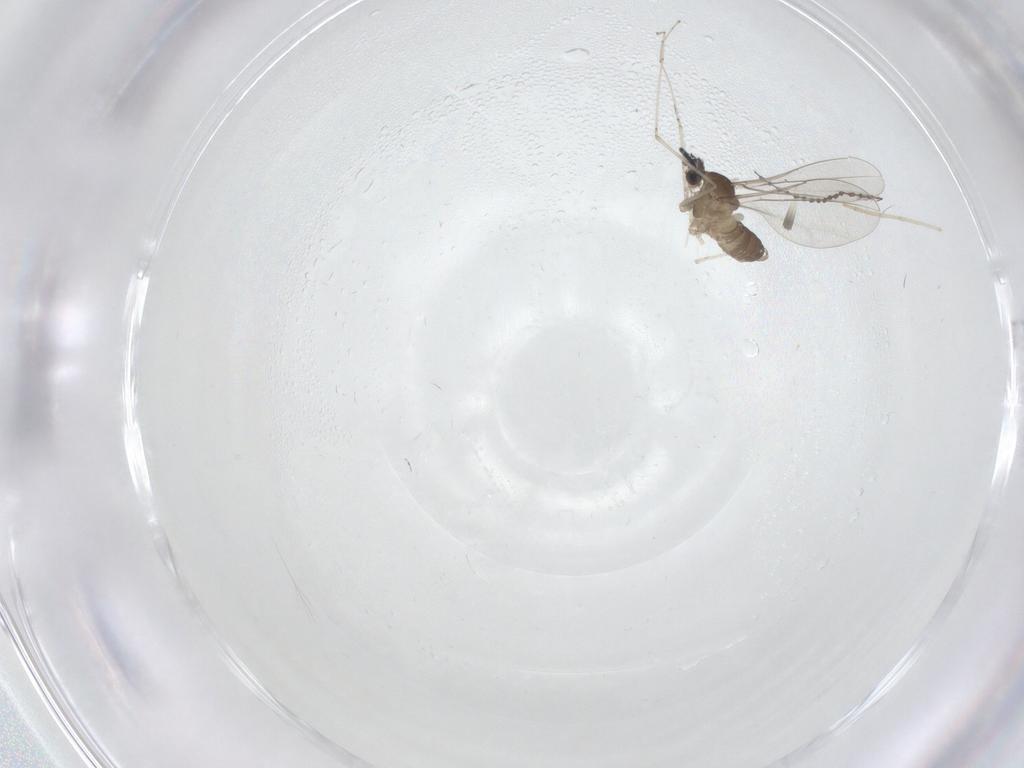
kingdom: Animalia
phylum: Arthropoda
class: Insecta
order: Diptera
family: Cecidomyiidae
